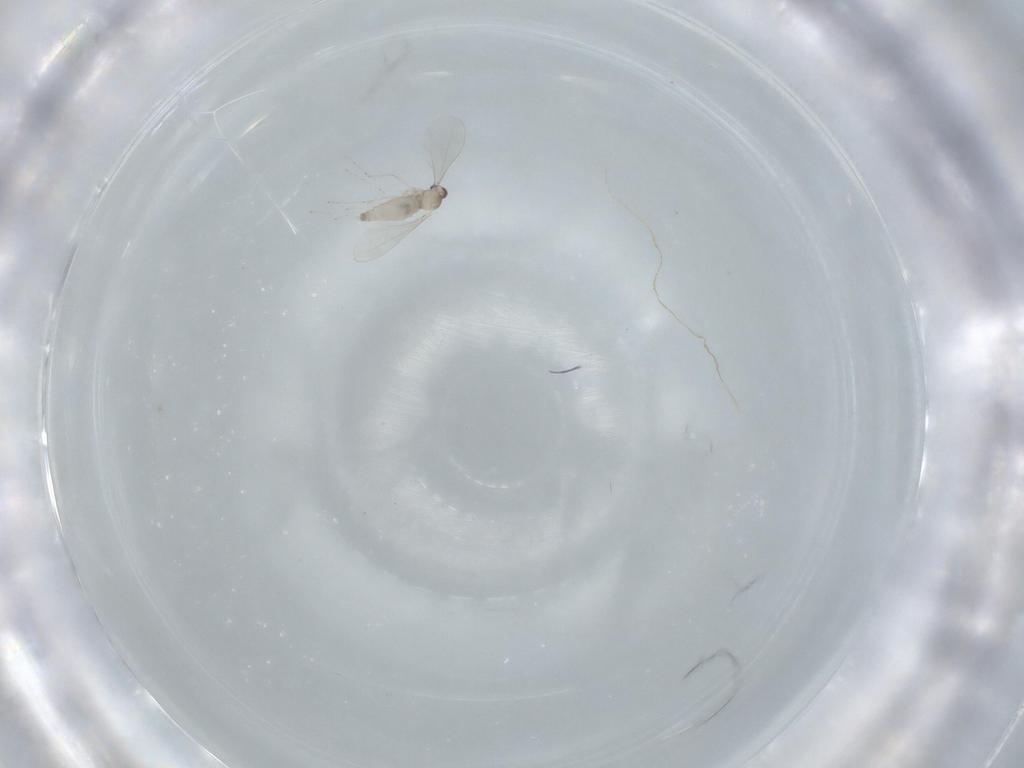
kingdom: Animalia
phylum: Arthropoda
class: Insecta
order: Diptera
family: Cecidomyiidae
